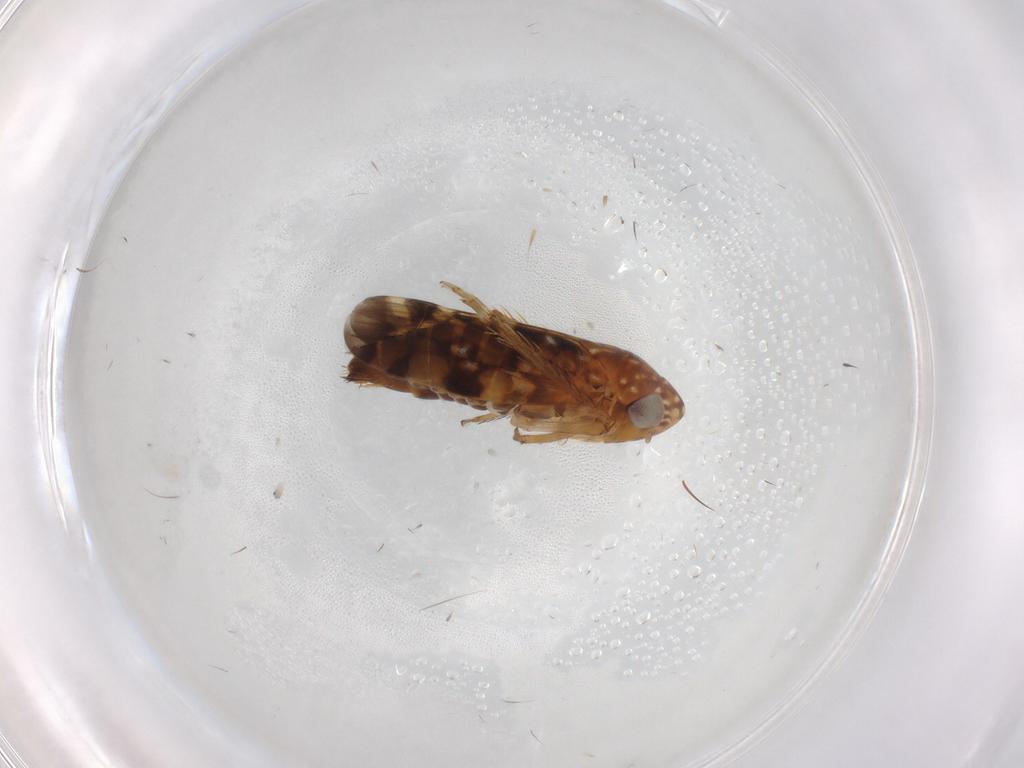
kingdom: Animalia
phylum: Arthropoda
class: Insecta
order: Hemiptera
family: Cicadellidae
